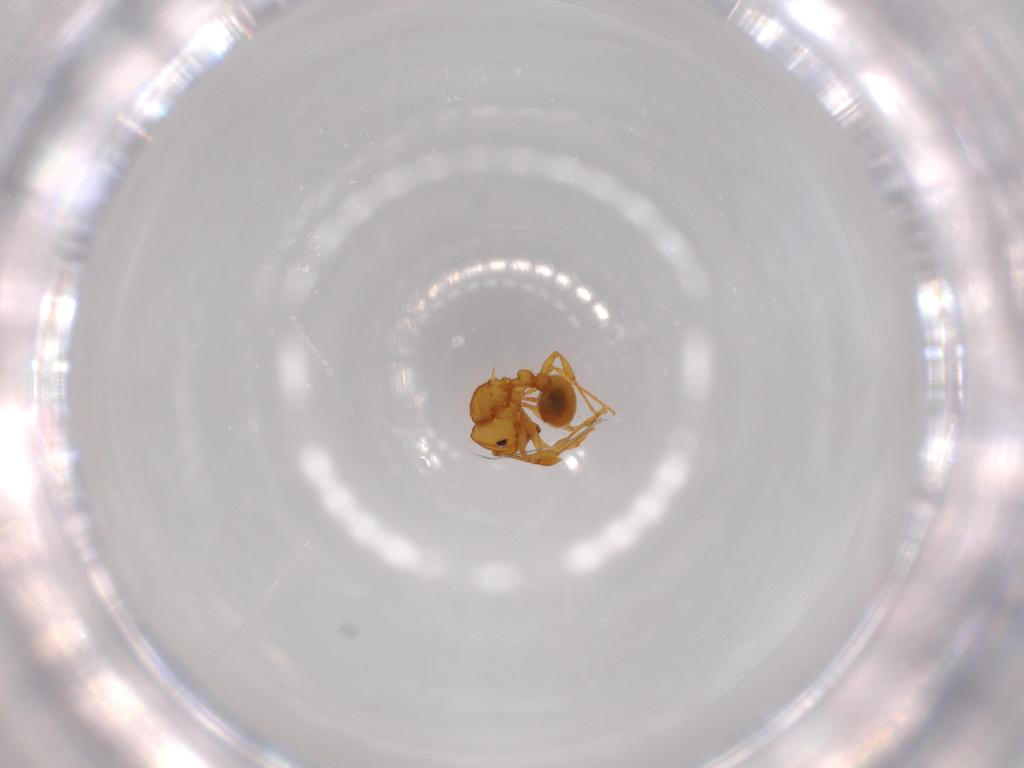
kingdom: Animalia
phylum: Arthropoda
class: Insecta
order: Hymenoptera
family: Formicidae
